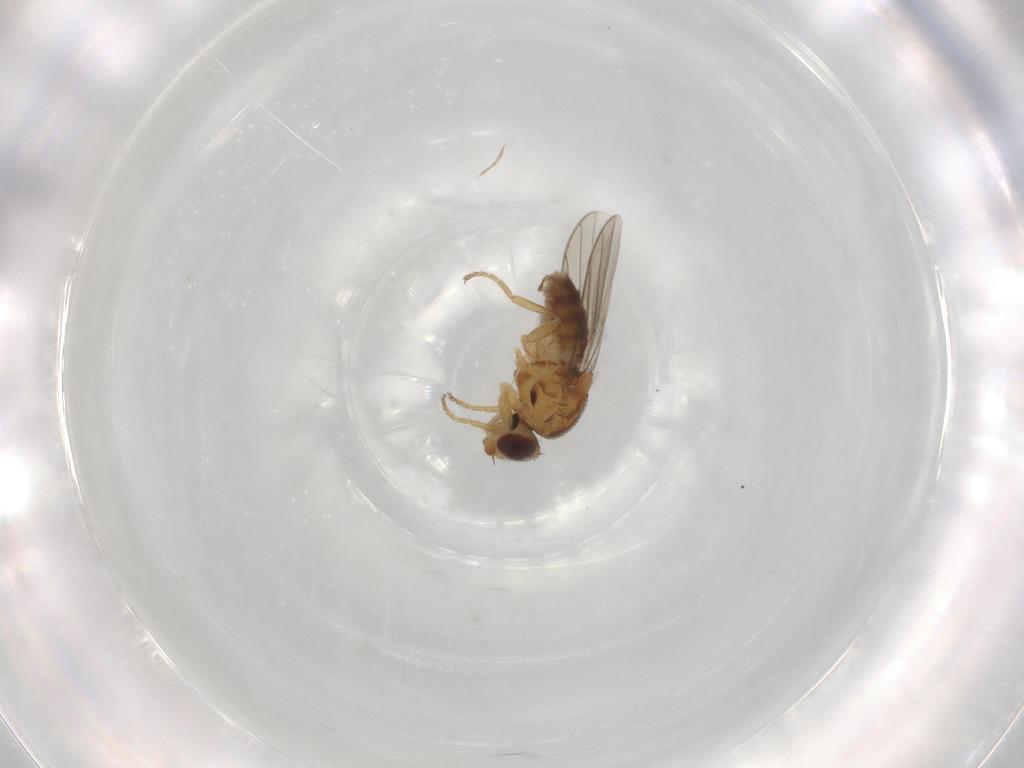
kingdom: Animalia
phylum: Arthropoda
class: Insecta
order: Diptera
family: Chloropidae
